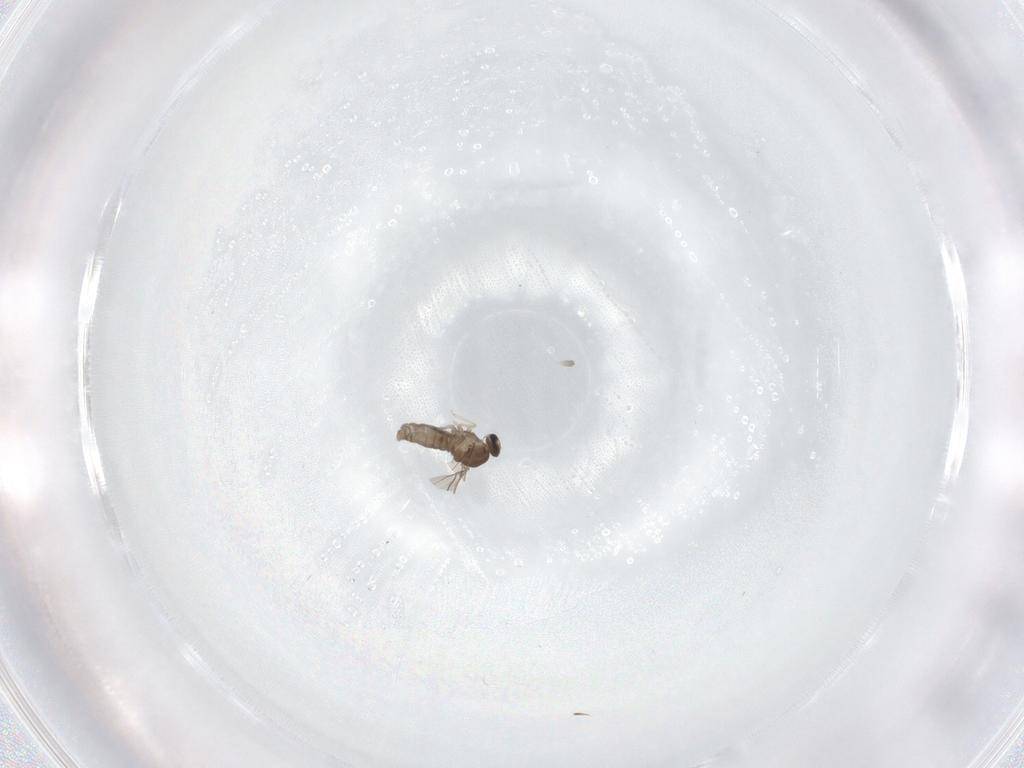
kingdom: Animalia
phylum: Arthropoda
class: Insecta
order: Diptera
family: Cecidomyiidae
